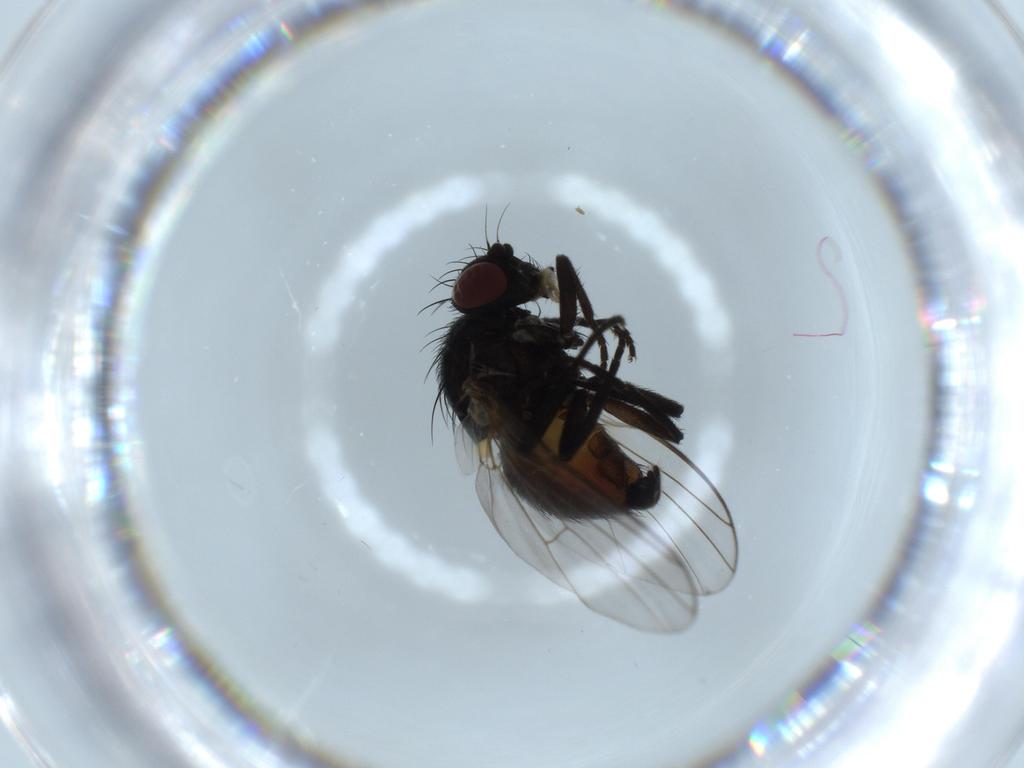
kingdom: Animalia
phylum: Arthropoda
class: Insecta
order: Diptera
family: Agromyzidae
